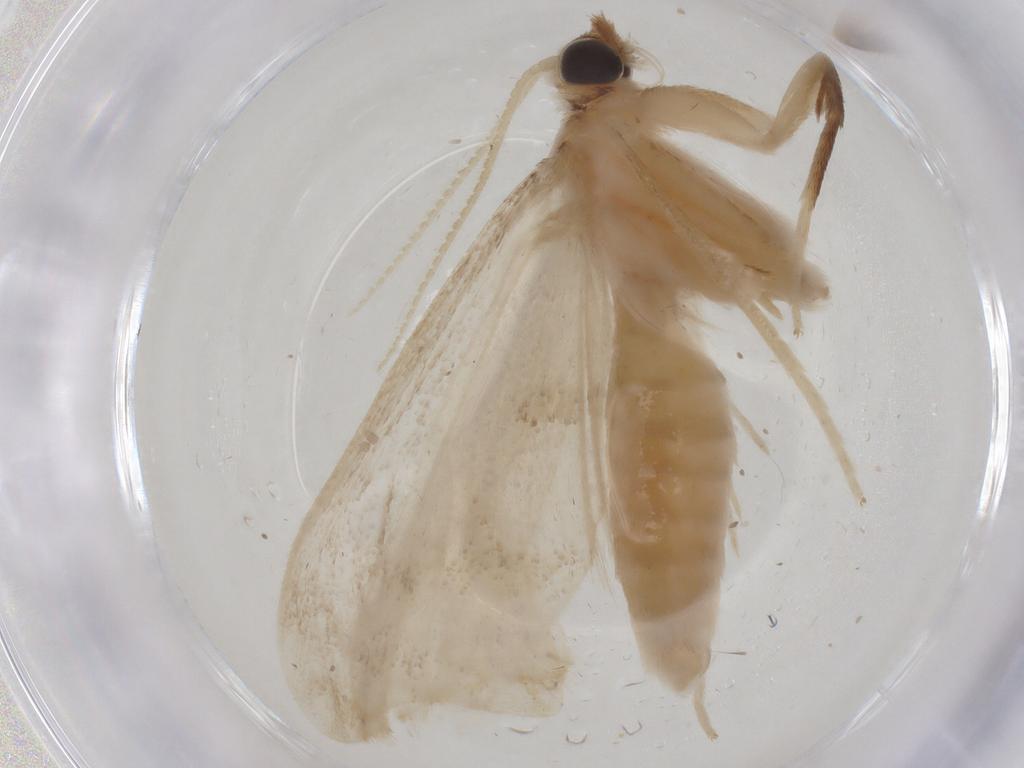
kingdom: Animalia
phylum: Arthropoda
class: Insecta
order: Lepidoptera
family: Crambidae
